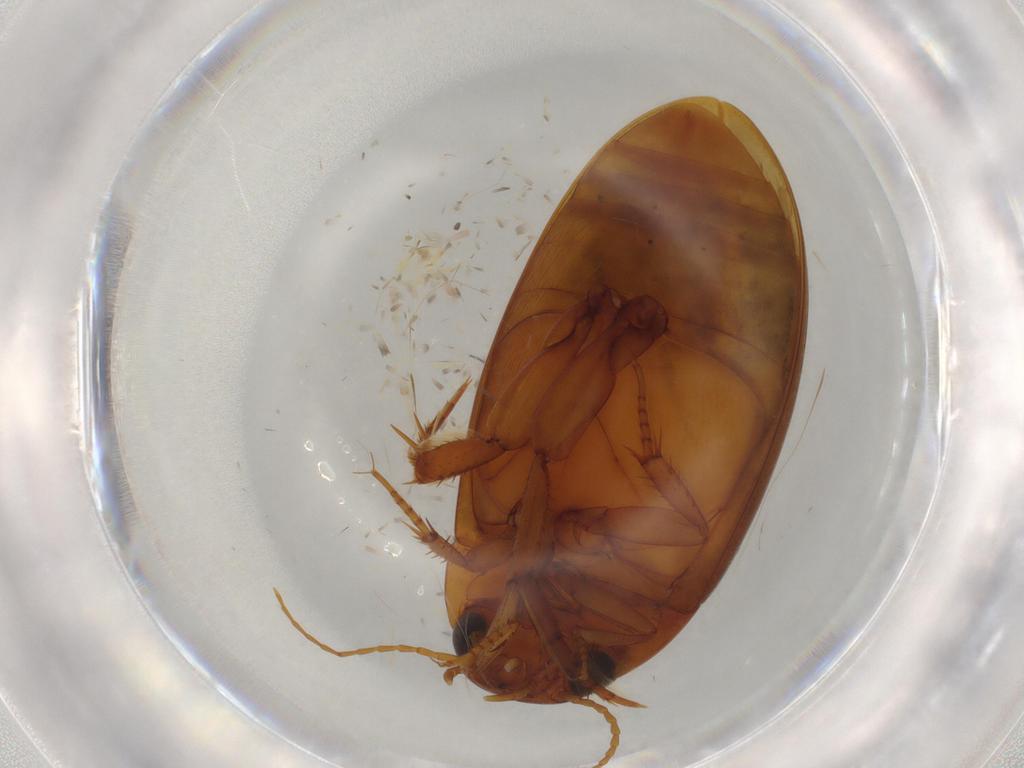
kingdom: Animalia
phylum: Arthropoda
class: Insecta
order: Coleoptera
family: Dytiscidae
